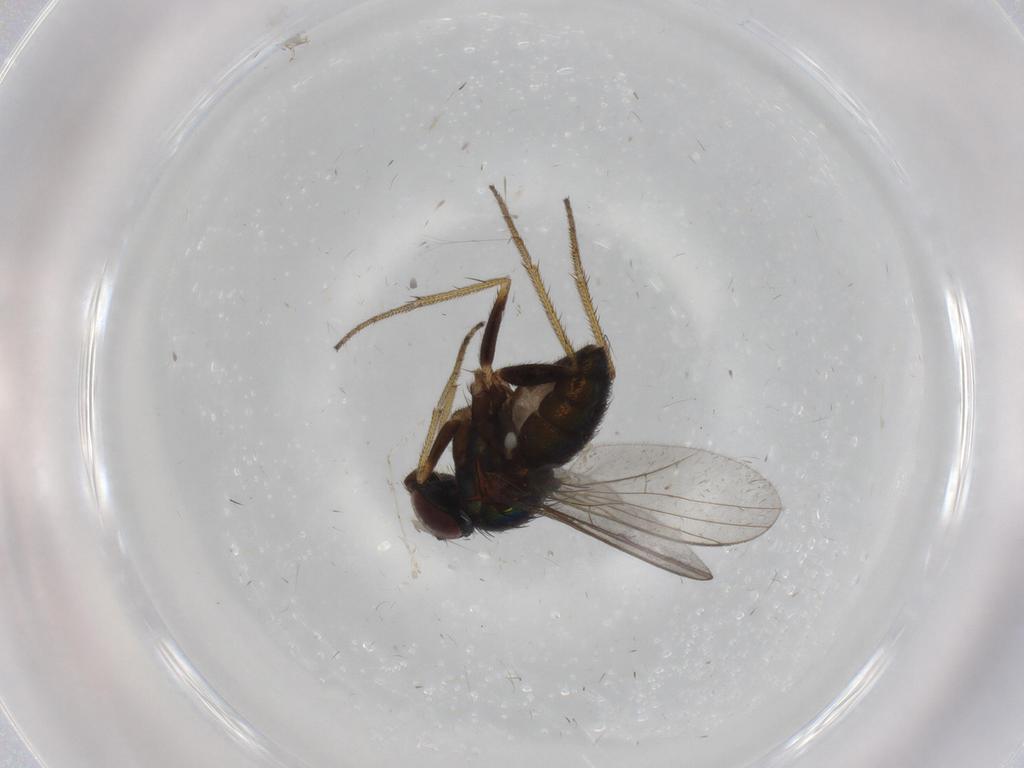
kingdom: Animalia
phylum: Arthropoda
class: Insecta
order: Diptera
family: Dolichopodidae
